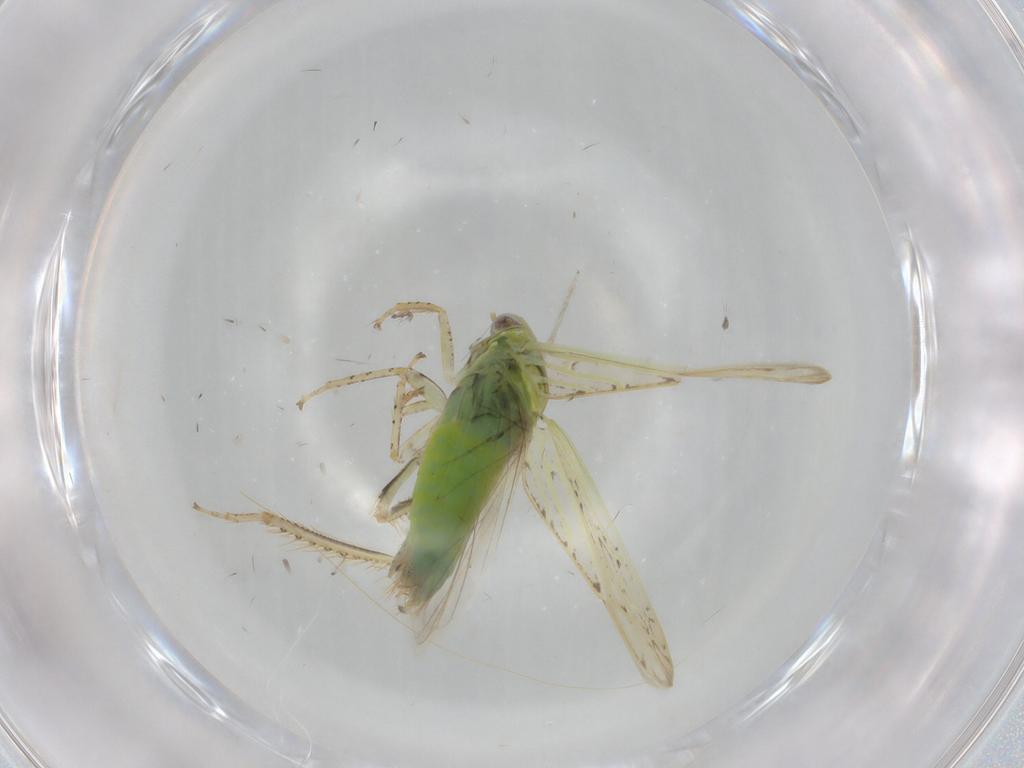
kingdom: Animalia
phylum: Arthropoda
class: Insecta
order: Hemiptera
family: Cicadellidae
